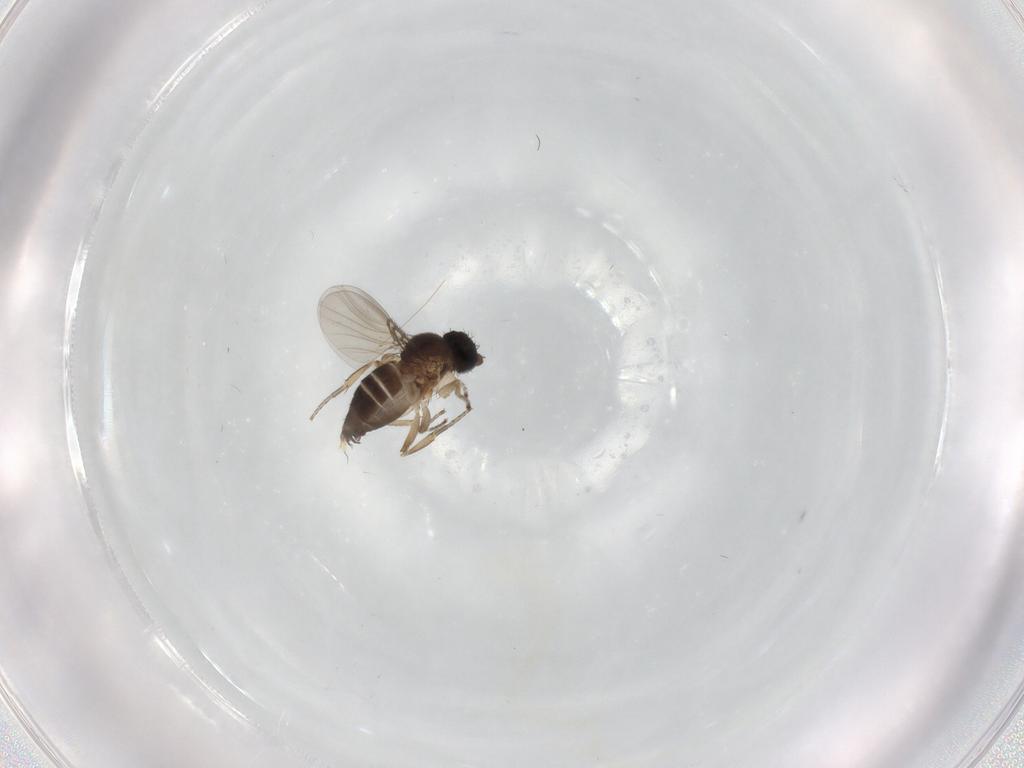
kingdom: Animalia
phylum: Arthropoda
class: Insecta
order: Diptera
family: Phoridae
